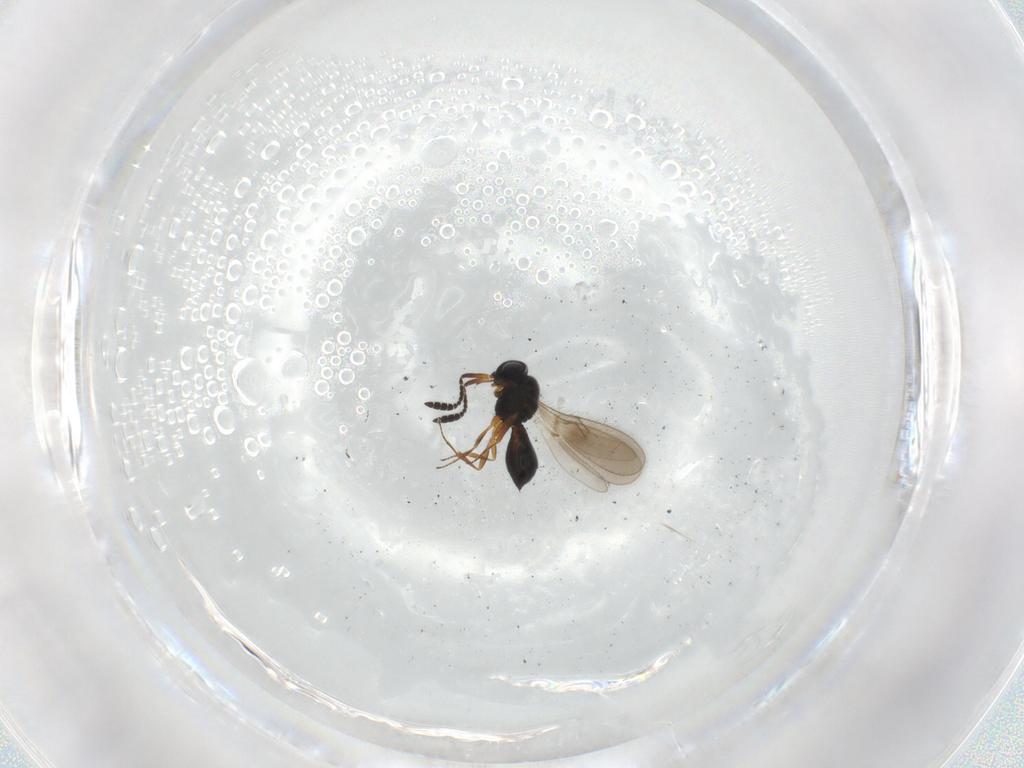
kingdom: Animalia
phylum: Arthropoda
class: Insecta
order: Hymenoptera
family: Scelionidae
